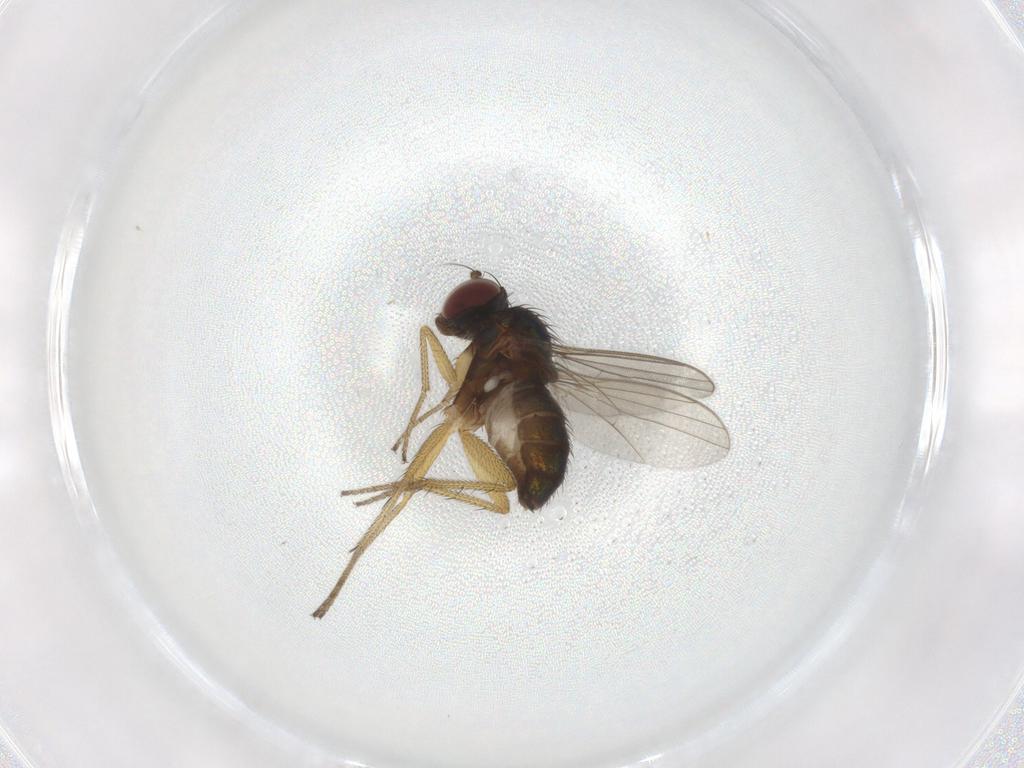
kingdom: Animalia
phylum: Arthropoda
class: Insecta
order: Diptera
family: Dolichopodidae
